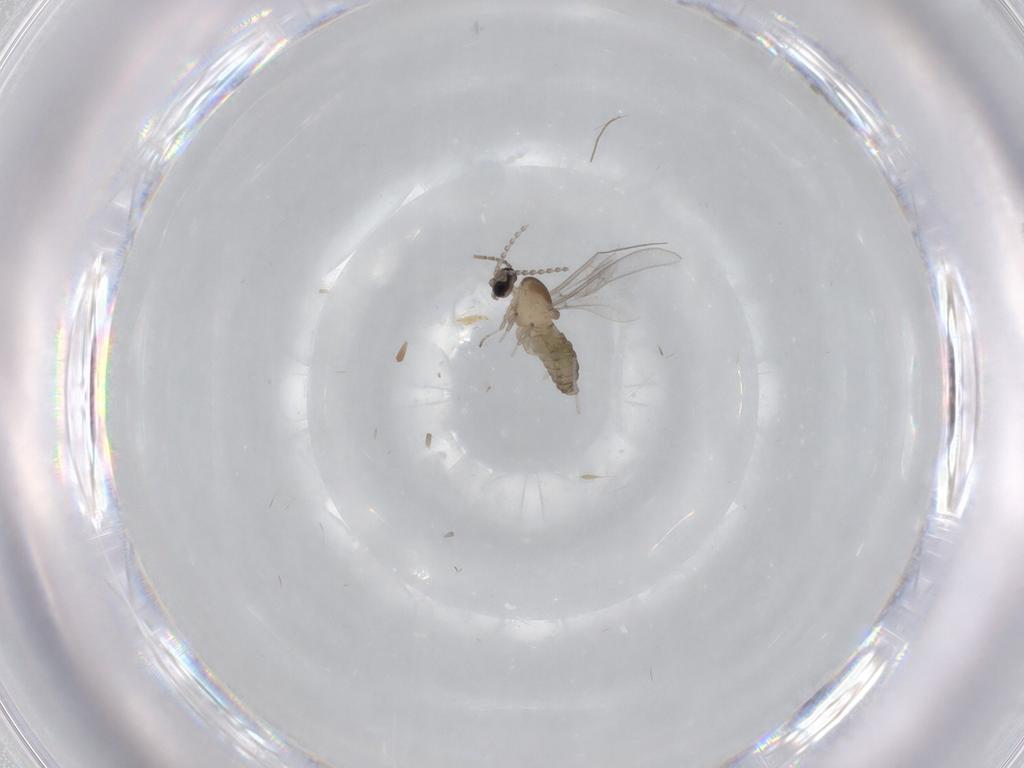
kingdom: Animalia
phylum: Arthropoda
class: Insecta
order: Diptera
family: Cecidomyiidae
